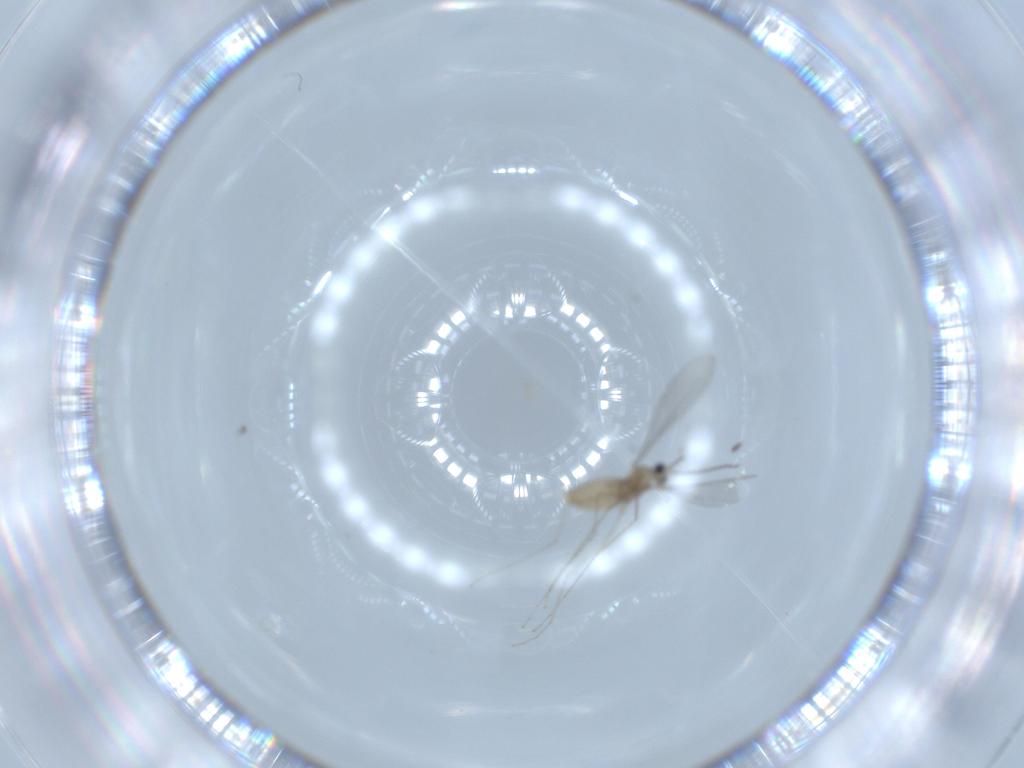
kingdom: Animalia
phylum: Arthropoda
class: Insecta
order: Diptera
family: Cecidomyiidae
